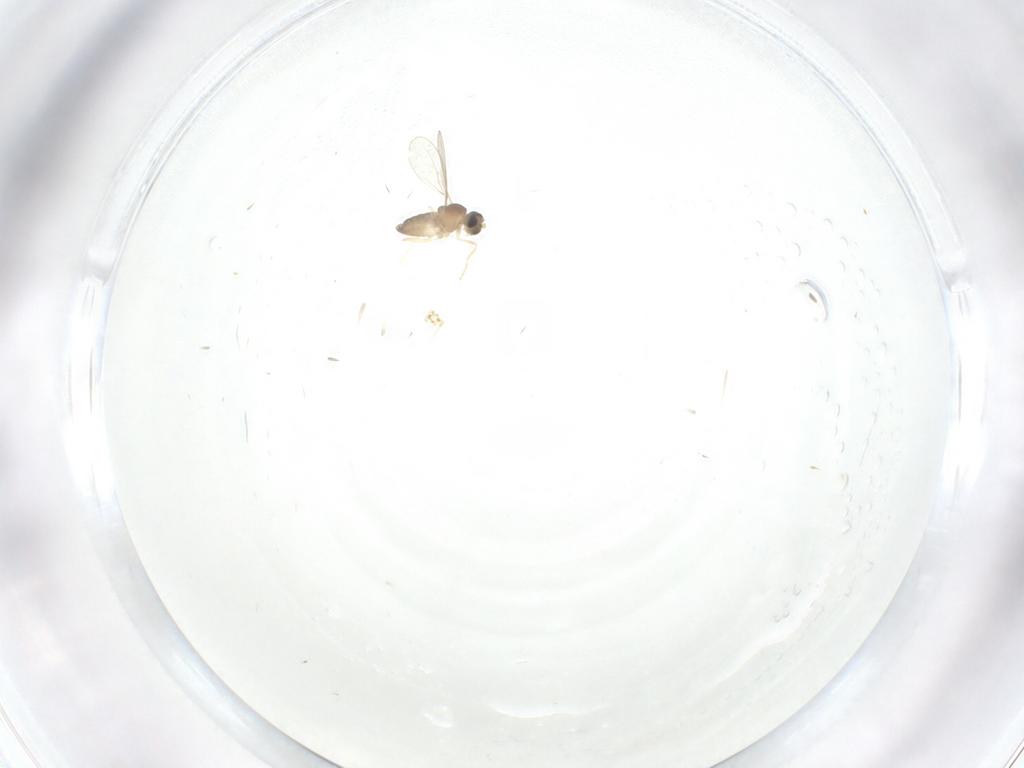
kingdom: Animalia
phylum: Arthropoda
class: Insecta
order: Diptera
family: Cecidomyiidae
